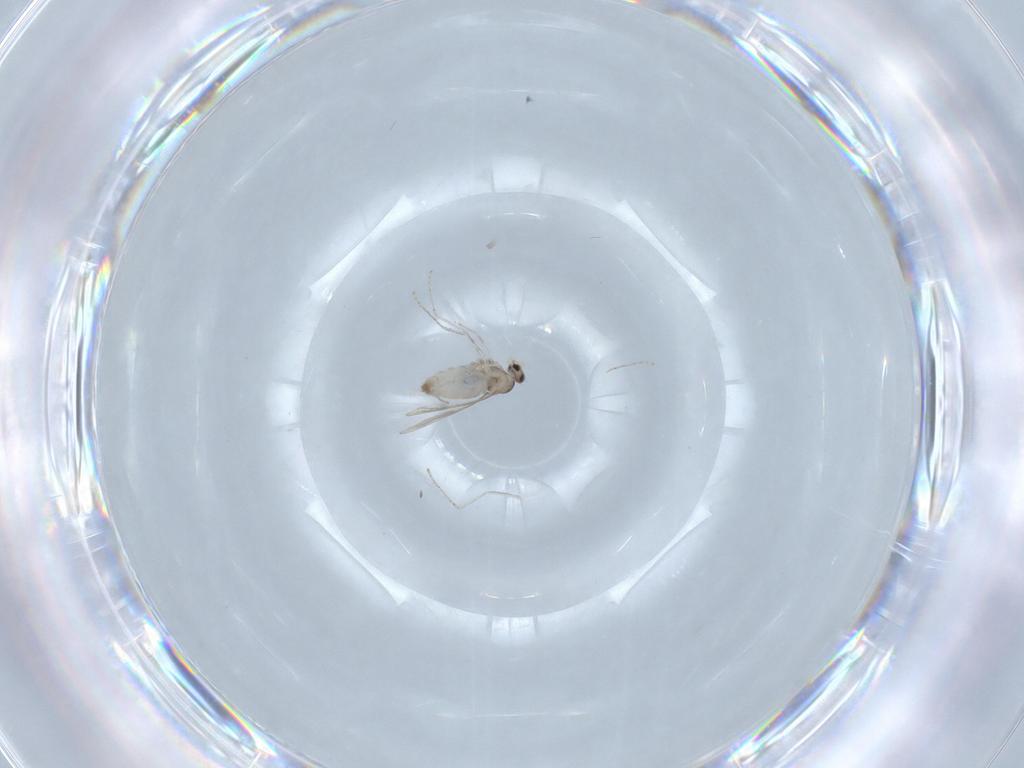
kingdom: Animalia
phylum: Arthropoda
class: Insecta
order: Diptera
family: Cecidomyiidae
